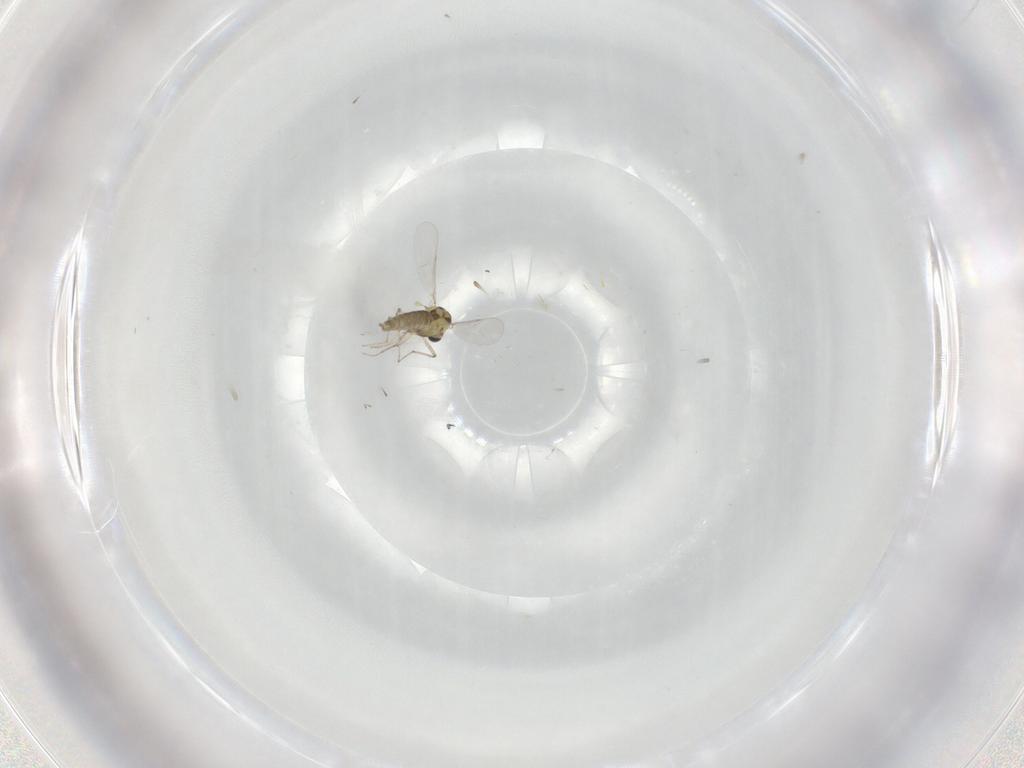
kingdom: Animalia
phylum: Arthropoda
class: Insecta
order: Diptera
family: Chironomidae
